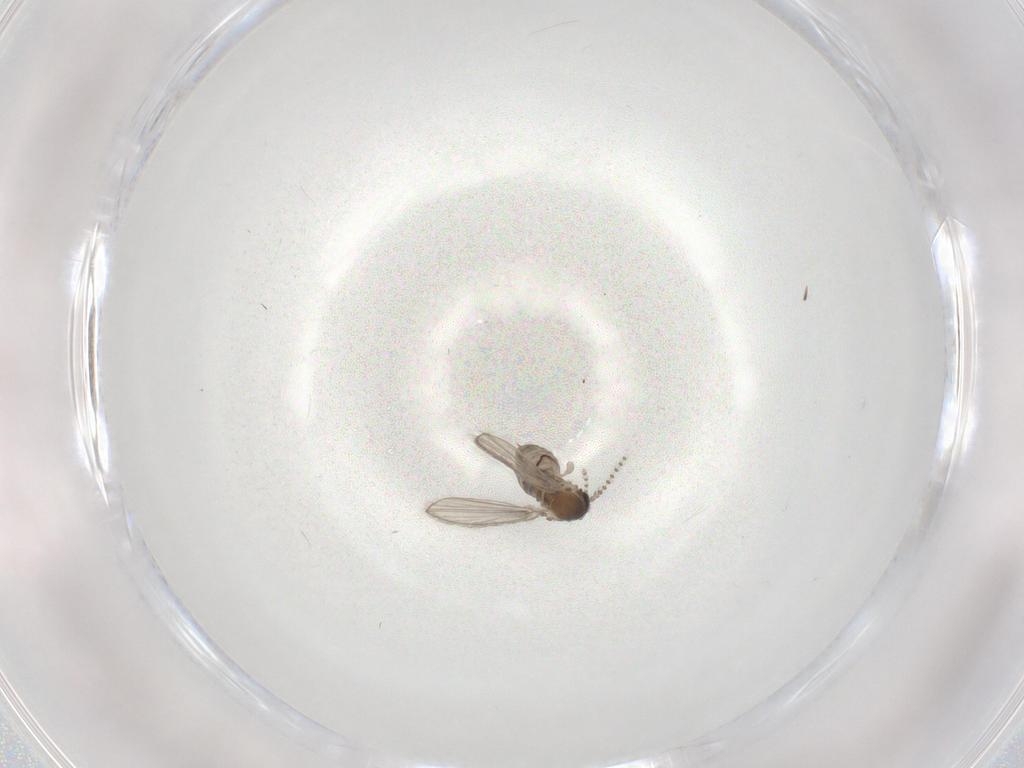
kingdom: Animalia
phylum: Arthropoda
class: Insecta
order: Diptera
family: Psychodidae
